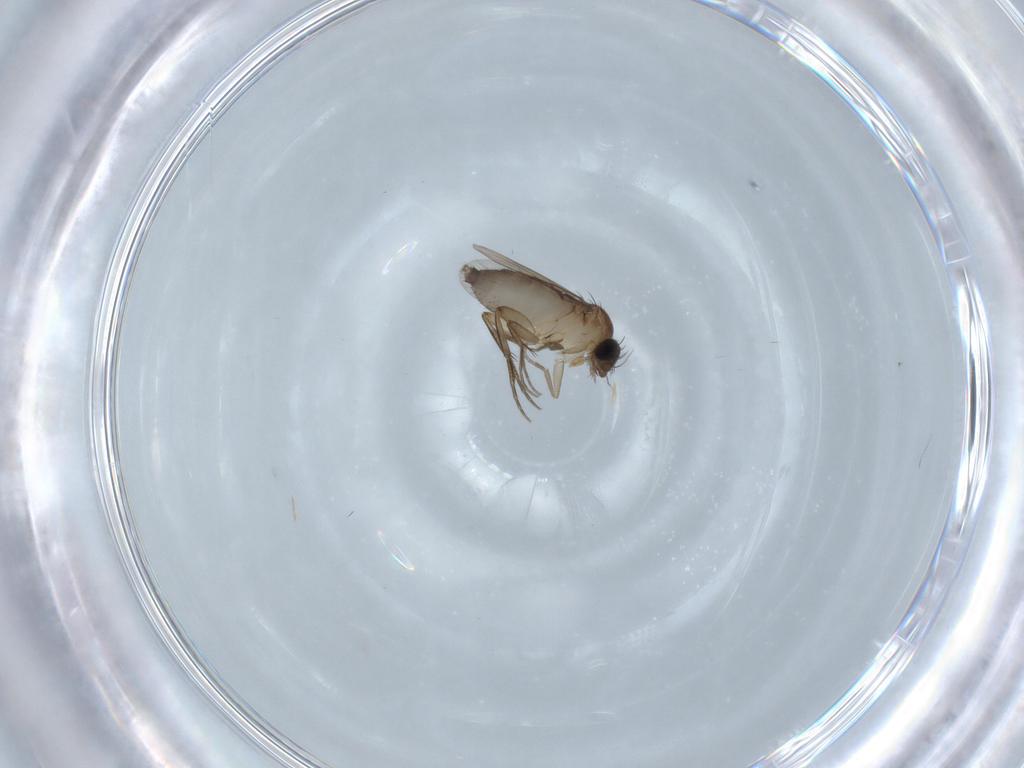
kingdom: Animalia
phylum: Arthropoda
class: Insecta
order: Diptera
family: Phoridae
